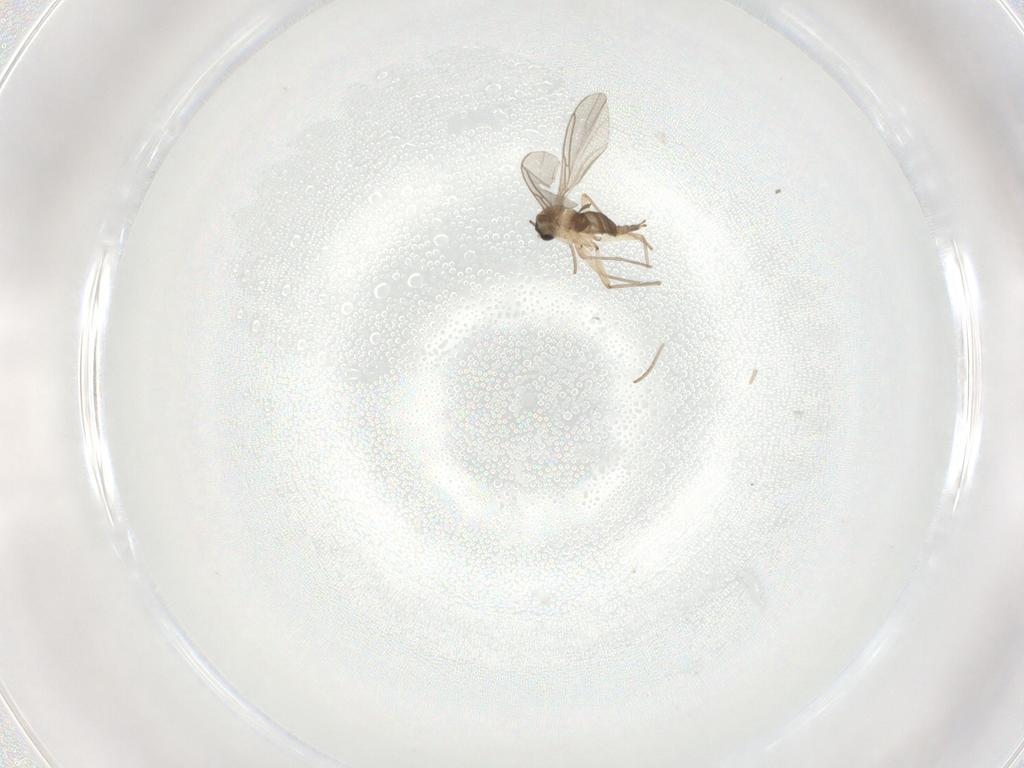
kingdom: Animalia
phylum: Arthropoda
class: Insecta
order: Diptera
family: Sciaridae
